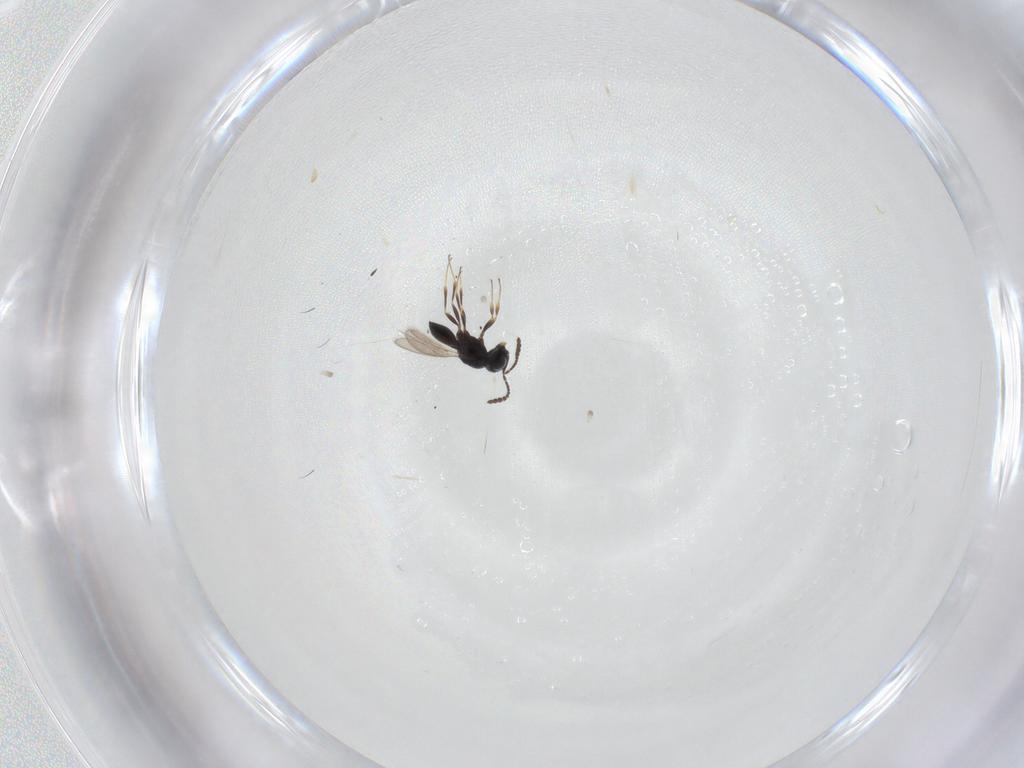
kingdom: Animalia
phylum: Arthropoda
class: Insecta
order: Hymenoptera
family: Scelionidae
